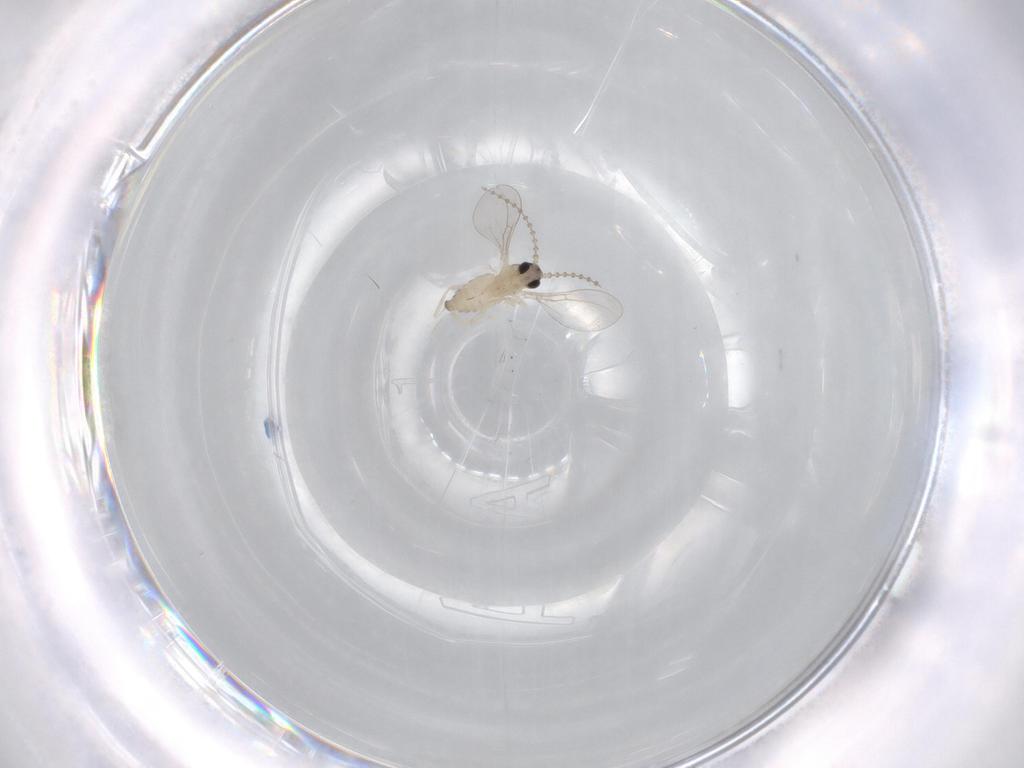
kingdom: Animalia
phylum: Arthropoda
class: Insecta
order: Diptera
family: Cecidomyiidae
